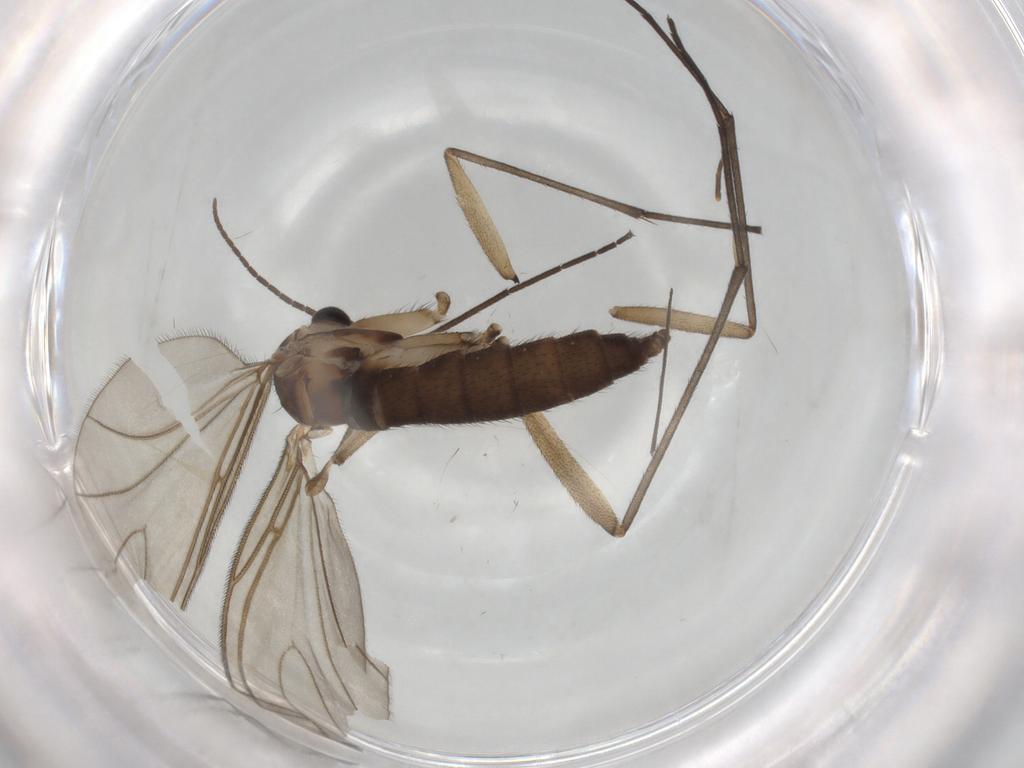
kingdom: Animalia
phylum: Arthropoda
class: Insecta
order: Diptera
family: Sciaridae
